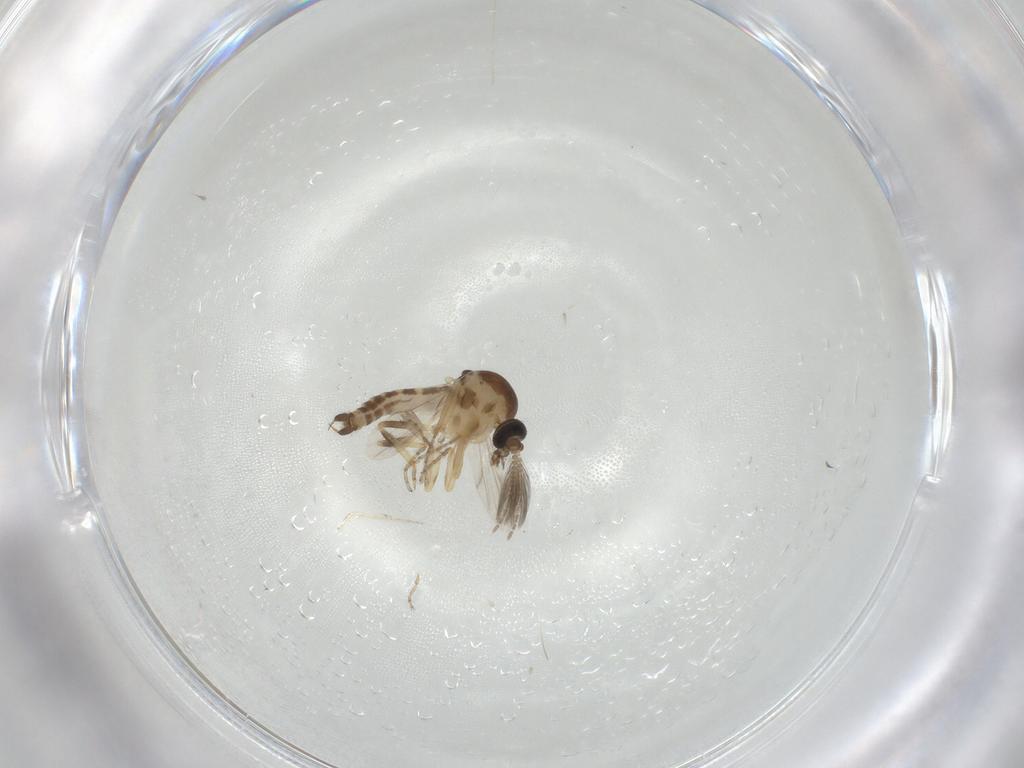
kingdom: Animalia
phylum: Arthropoda
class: Insecta
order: Diptera
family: Ceratopogonidae
